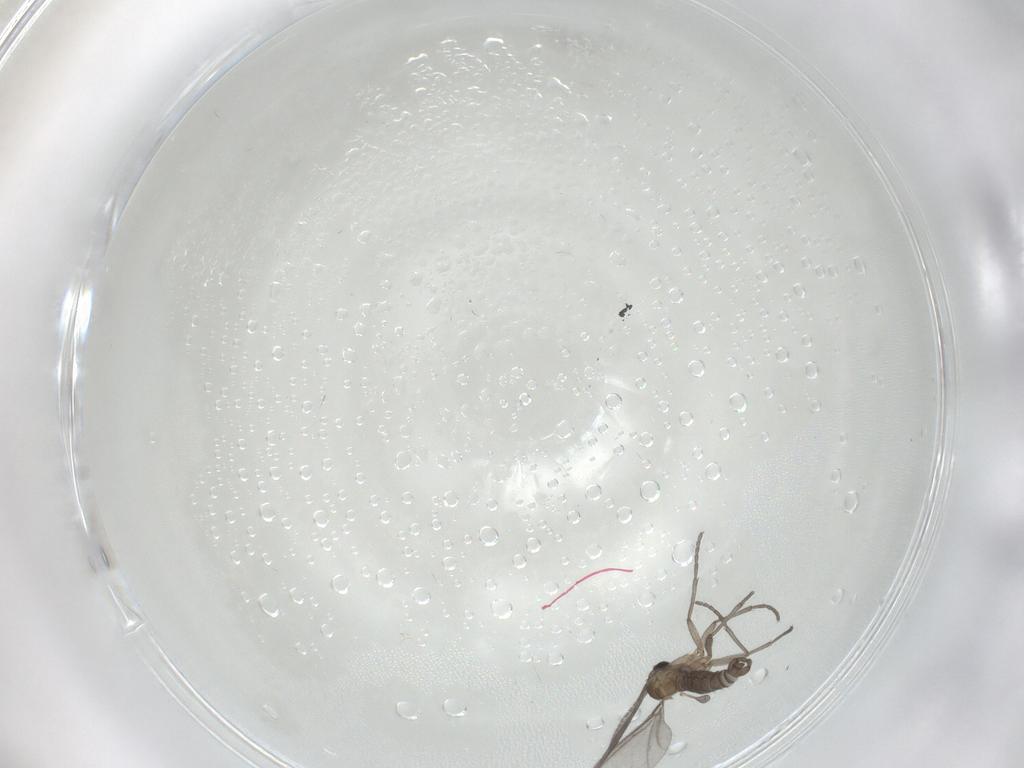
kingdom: Animalia
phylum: Arthropoda
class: Insecta
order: Diptera
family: Sciaridae
